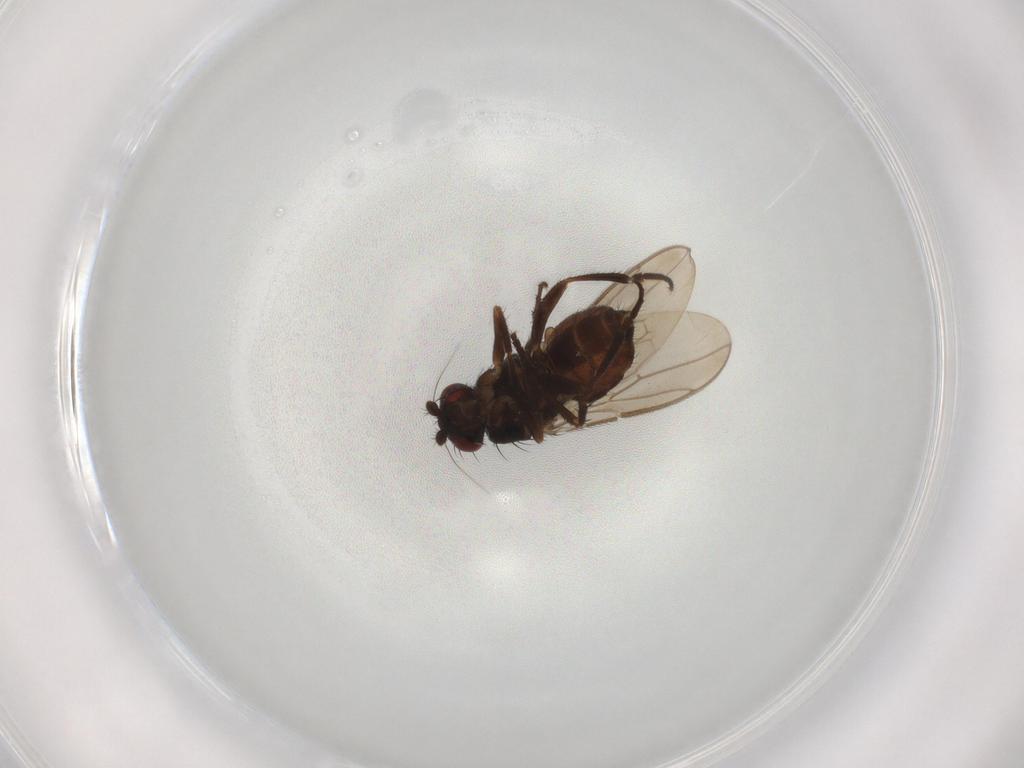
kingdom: Animalia
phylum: Arthropoda
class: Insecta
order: Diptera
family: Sphaeroceridae
